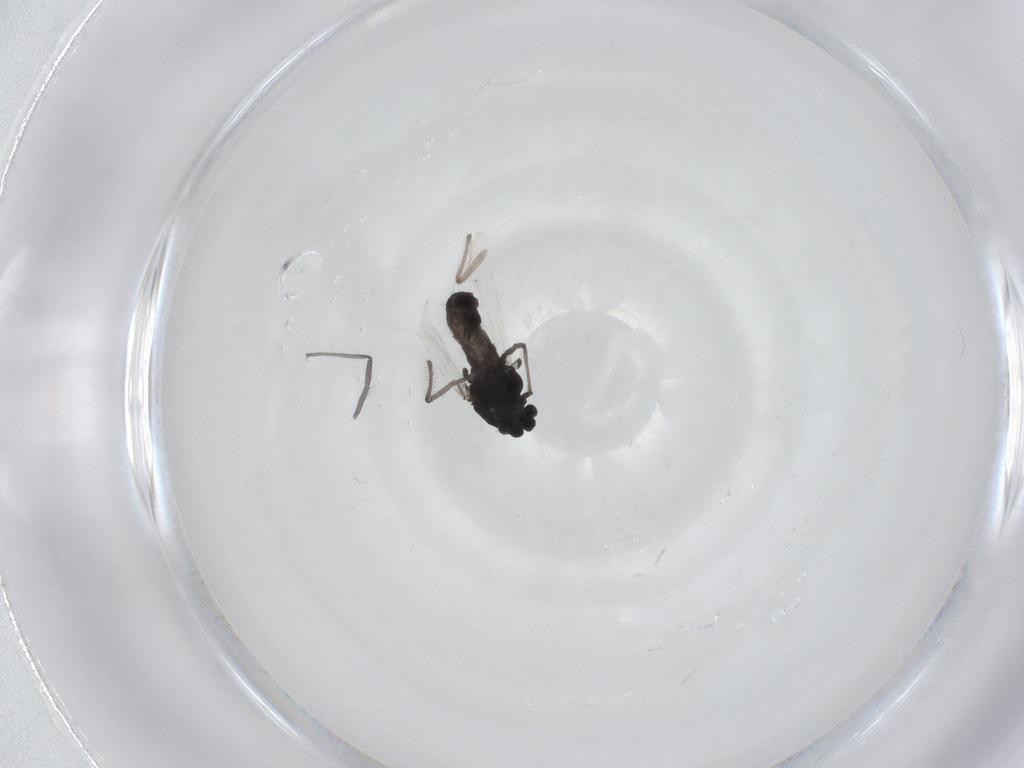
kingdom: Animalia
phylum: Arthropoda
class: Insecta
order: Diptera
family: Chironomidae
